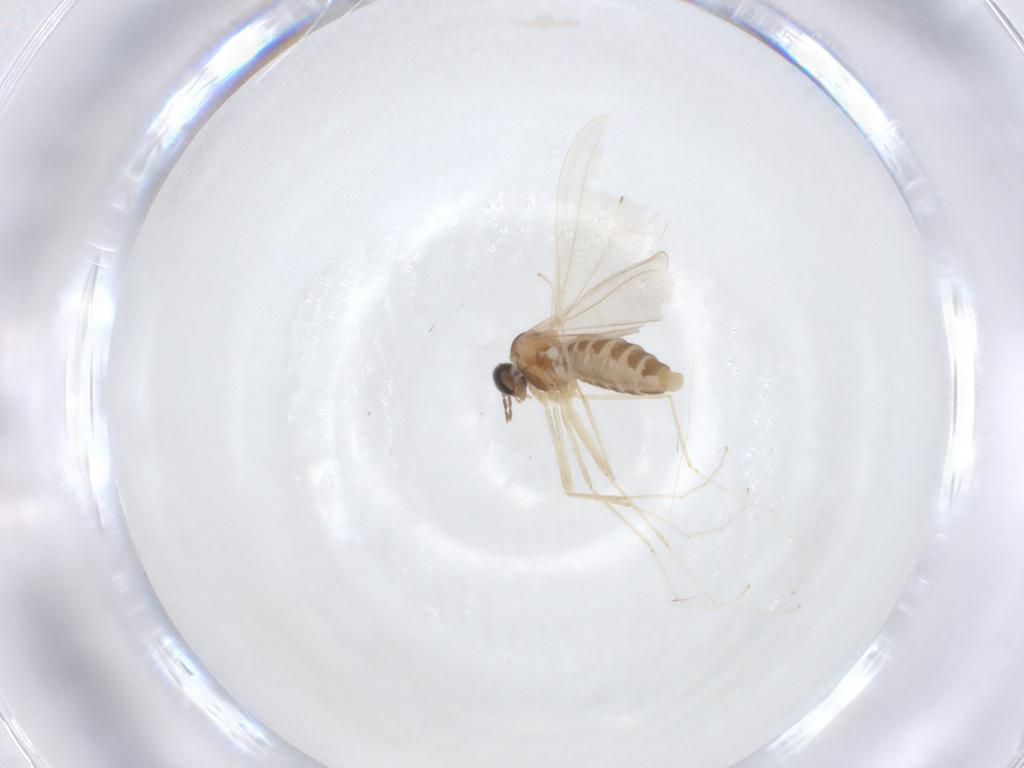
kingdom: Animalia
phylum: Arthropoda
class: Insecta
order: Diptera
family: Cecidomyiidae
